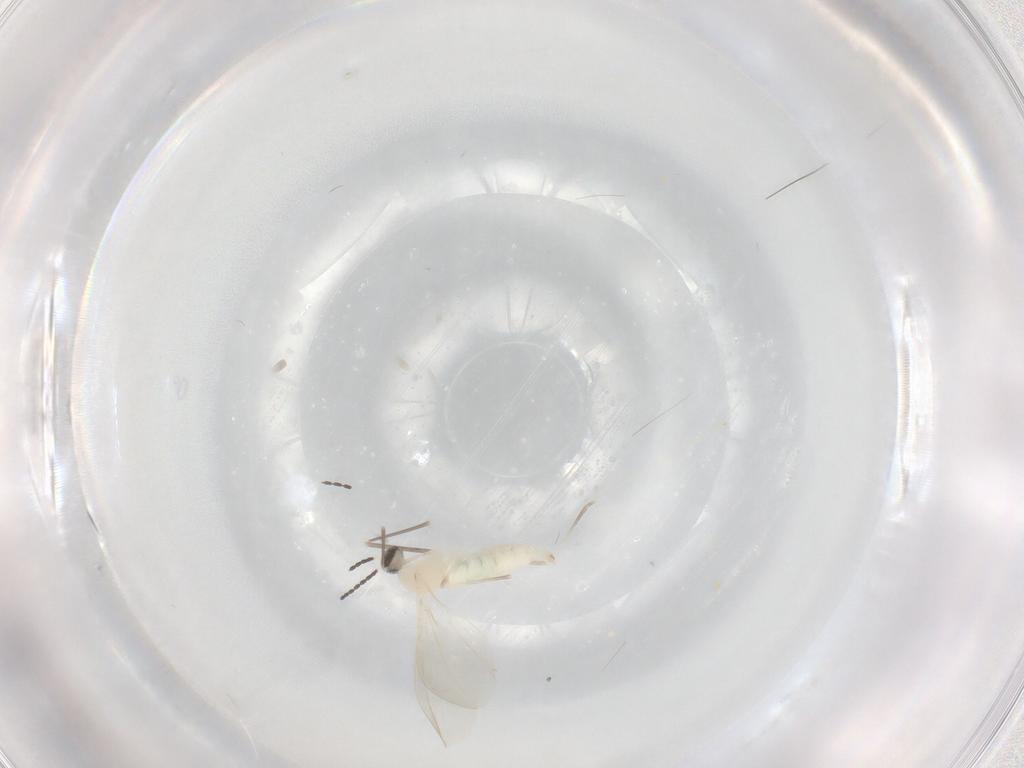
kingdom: Animalia
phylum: Arthropoda
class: Insecta
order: Diptera
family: Cecidomyiidae
